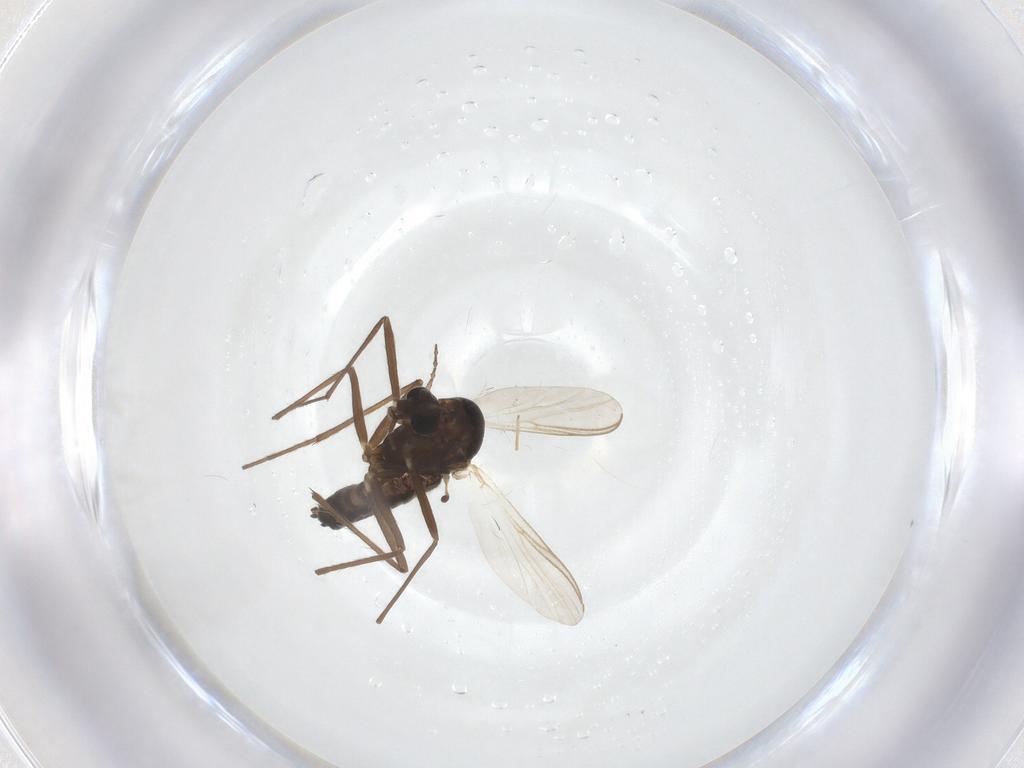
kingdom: Animalia
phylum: Arthropoda
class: Insecta
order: Diptera
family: Chironomidae
